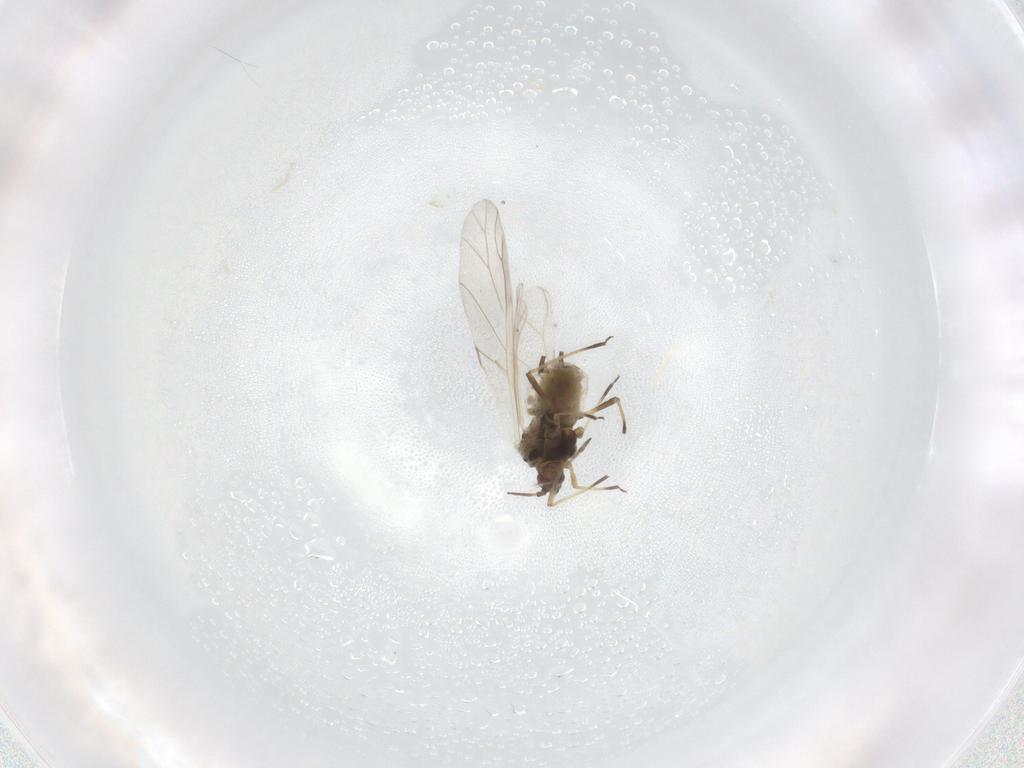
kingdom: Animalia
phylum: Arthropoda
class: Insecta
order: Hemiptera
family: Aphididae
